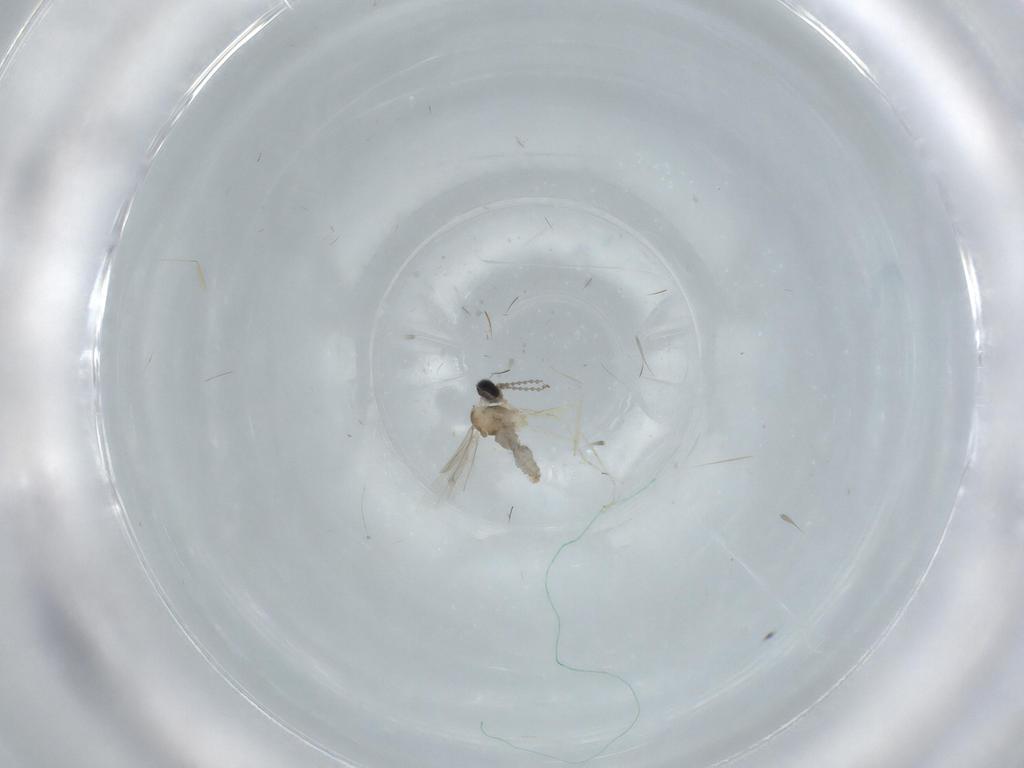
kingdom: Animalia
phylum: Arthropoda
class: Insecta
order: Diptera
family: Cecidomyiidae
